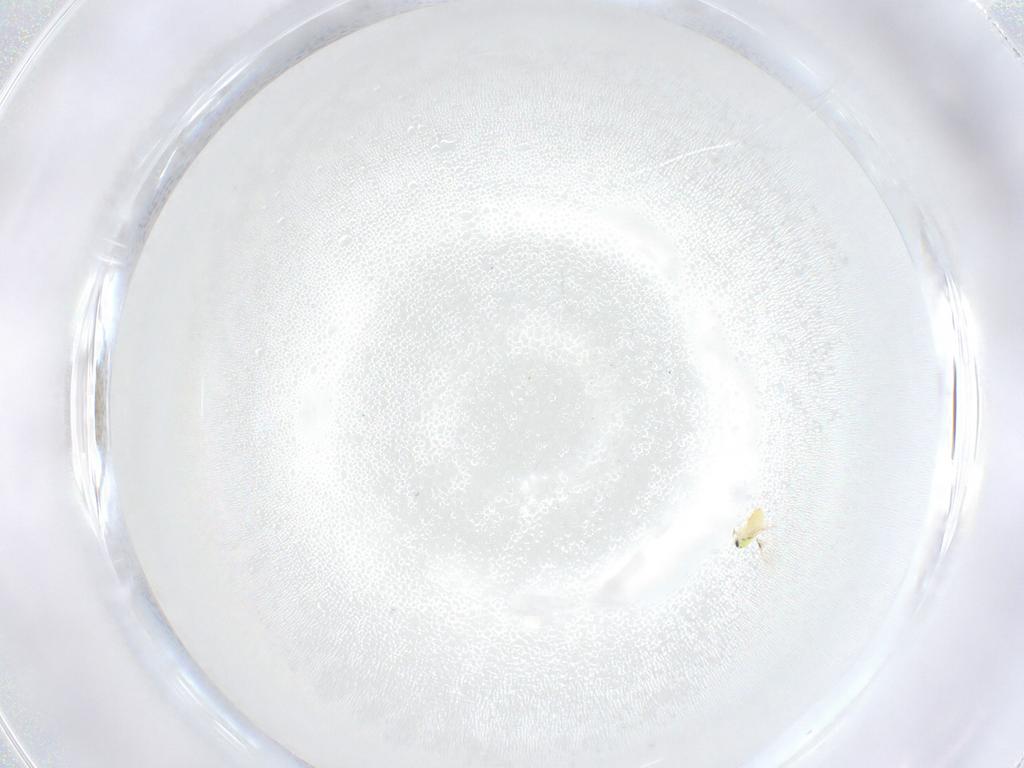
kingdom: Animalia
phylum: Arthropoda
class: Insecta
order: Hymenoptera
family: Trichogrammatidae
